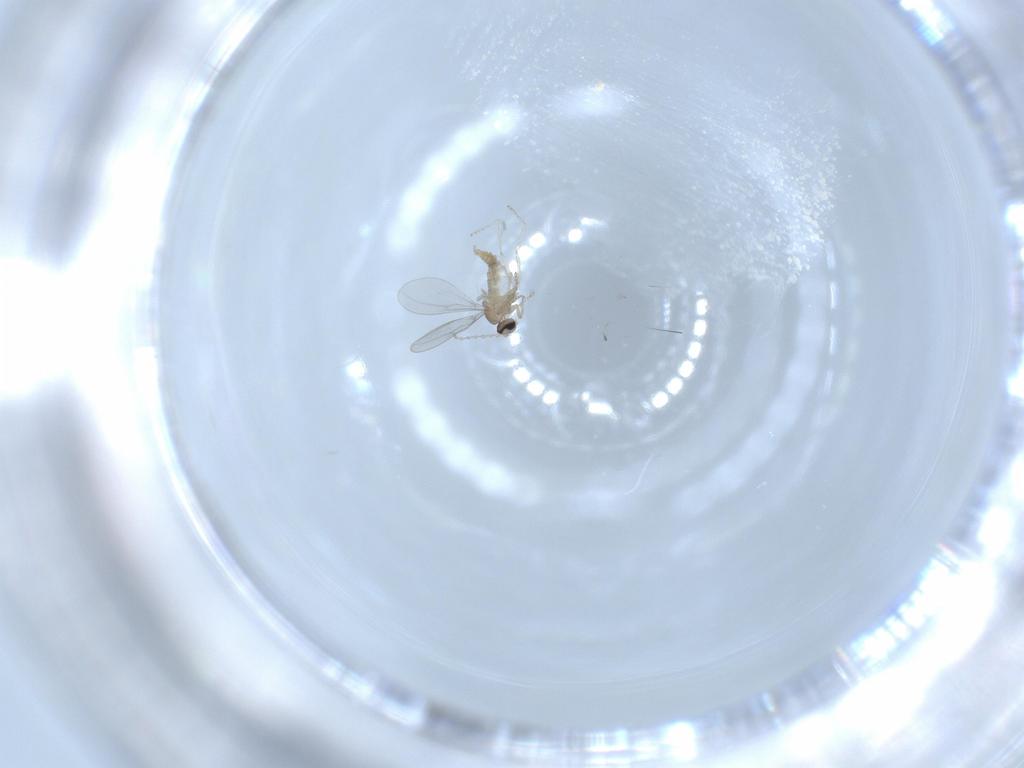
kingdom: Animalia
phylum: Arthropoda
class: Insecta
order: Diptera
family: Cecidomyiidae
